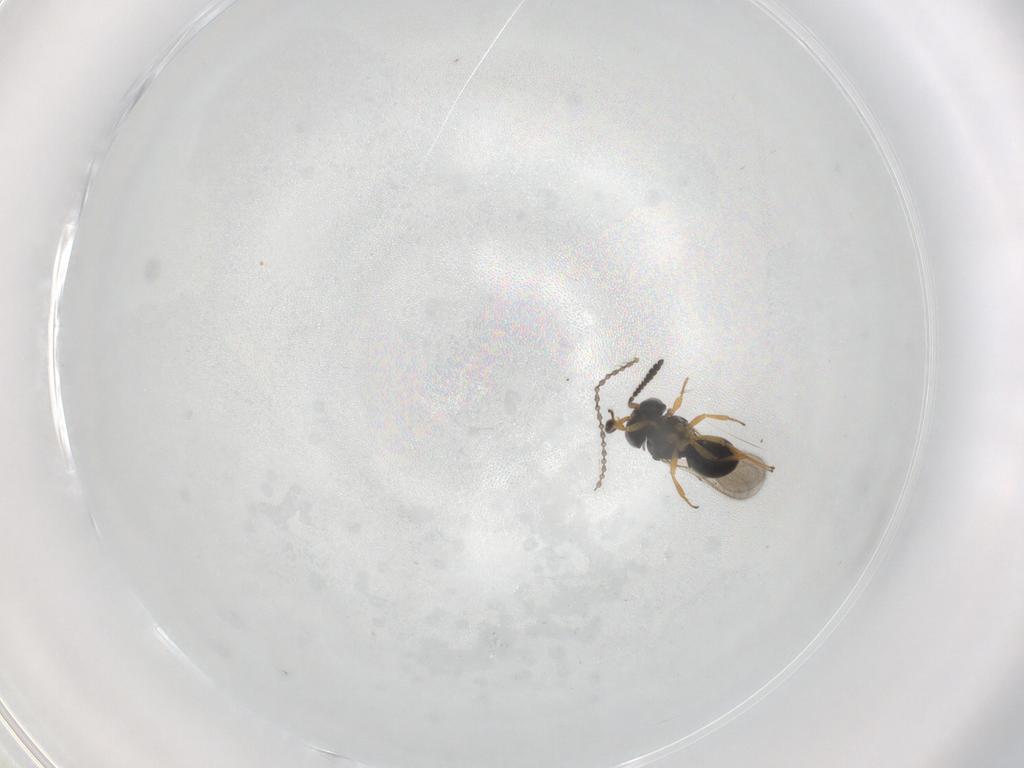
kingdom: Animalia
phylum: Arthropoda
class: Insecta
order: Hymenoptera
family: Scelionidae
